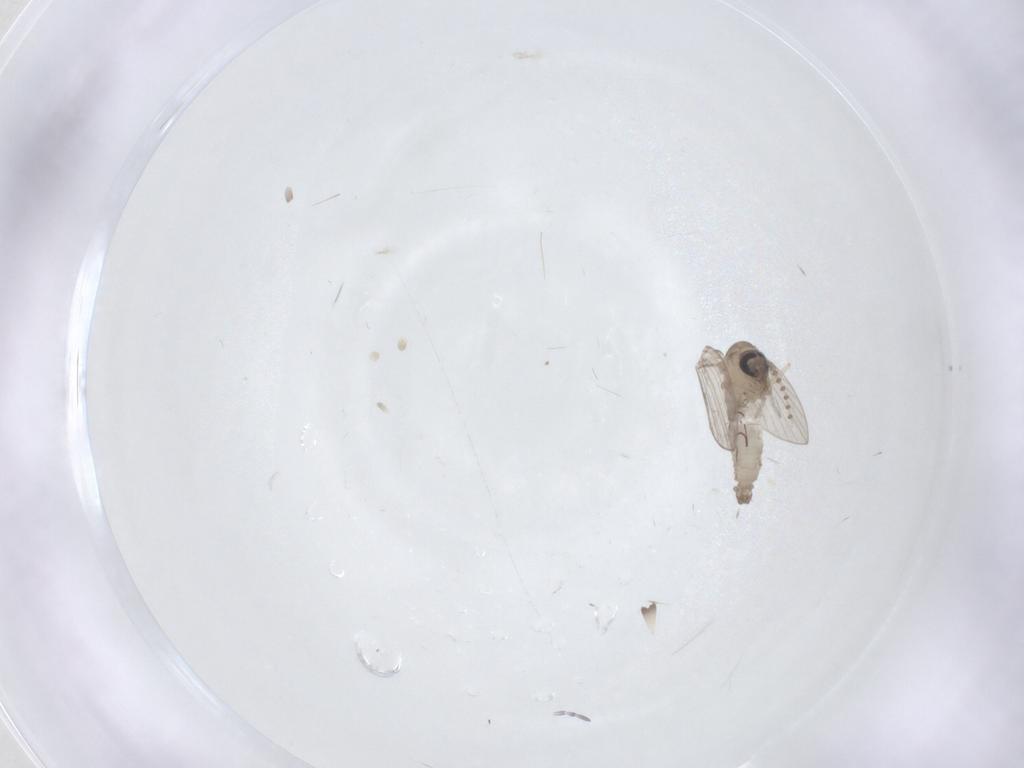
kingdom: Animalia
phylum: Arthropoda
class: Insecta
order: Diptera
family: Psychodidae
